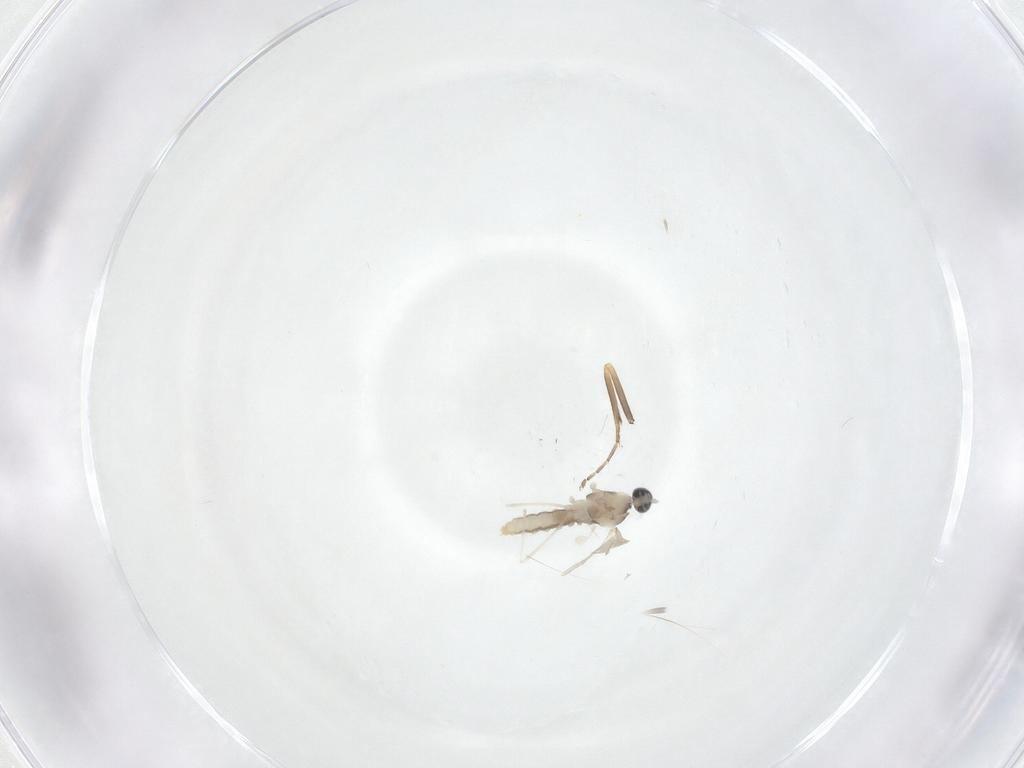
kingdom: Animalia
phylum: Arthropoda
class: Insecta
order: Diptera
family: Cecidomyiidae
